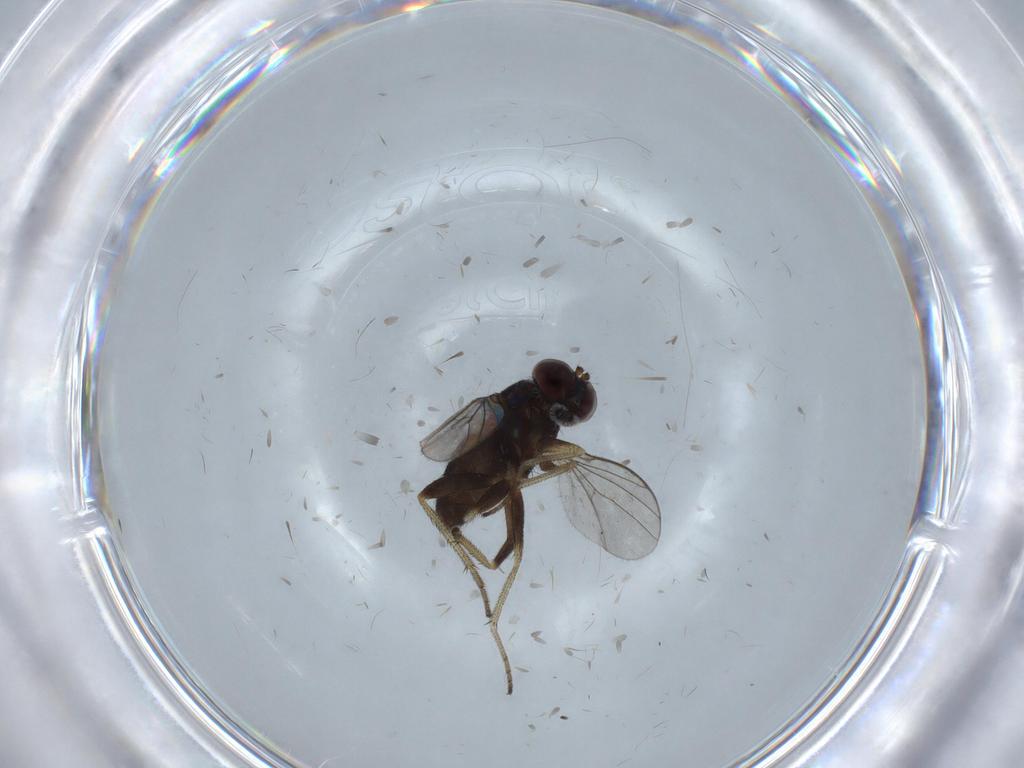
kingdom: Animalia
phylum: Arthropoda
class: Insecta
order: Diptera
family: Chironomidae
